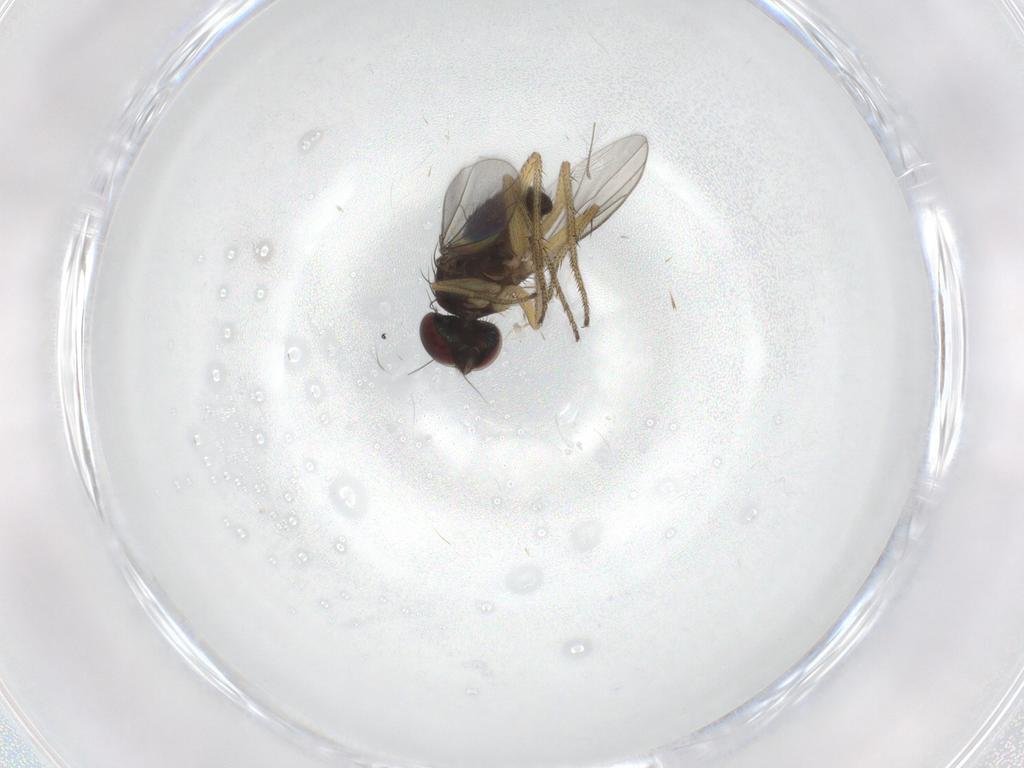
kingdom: Animalia
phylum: Arthropoda
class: Insecta
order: Diptera
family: Chironomidae
